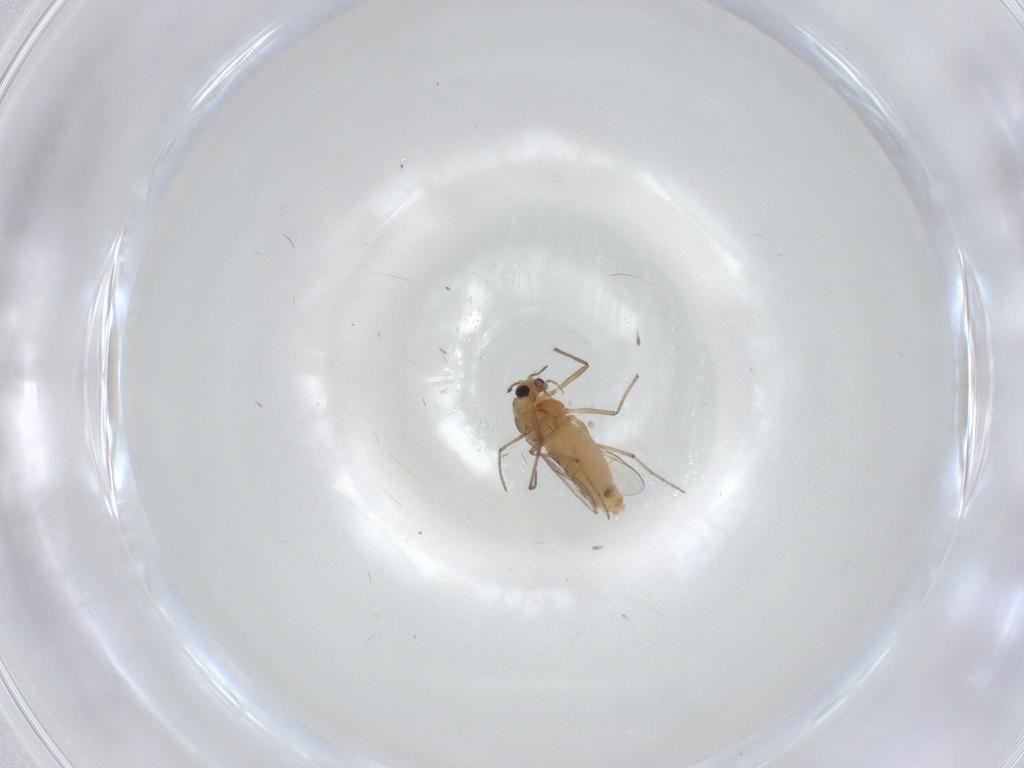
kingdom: Animalia
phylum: Arthropoda
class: Insecta
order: Diptera
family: Chironomidae
